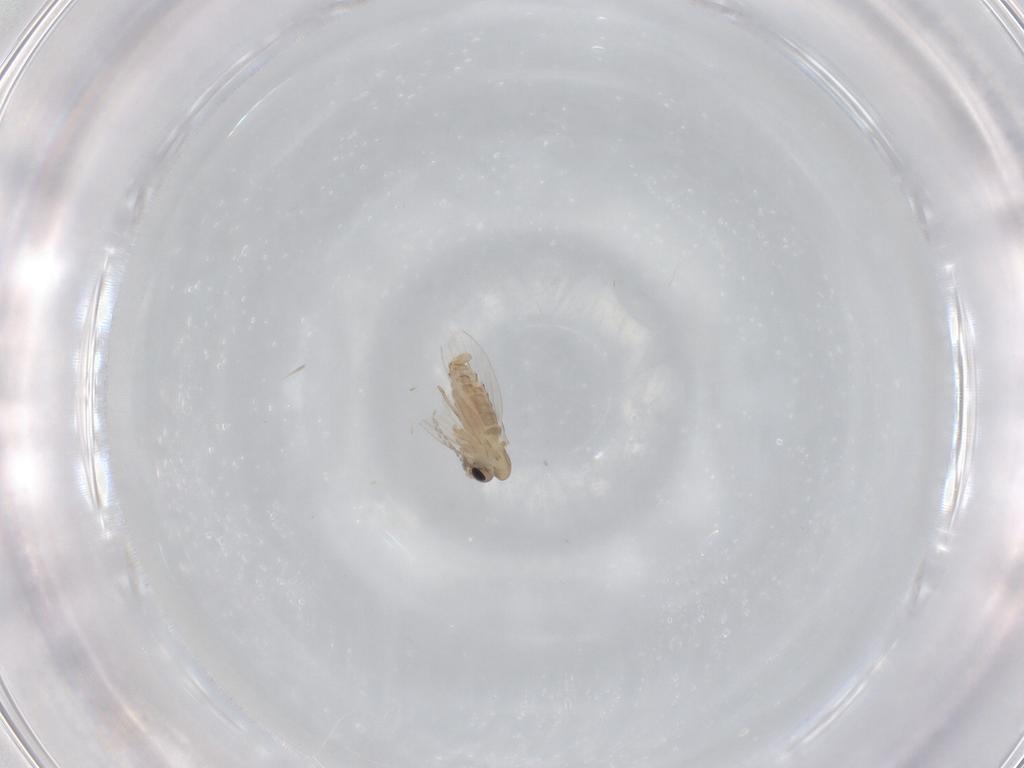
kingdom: Animalia
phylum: Arthropoda
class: Insecta
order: Diptera
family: Psychodidae
